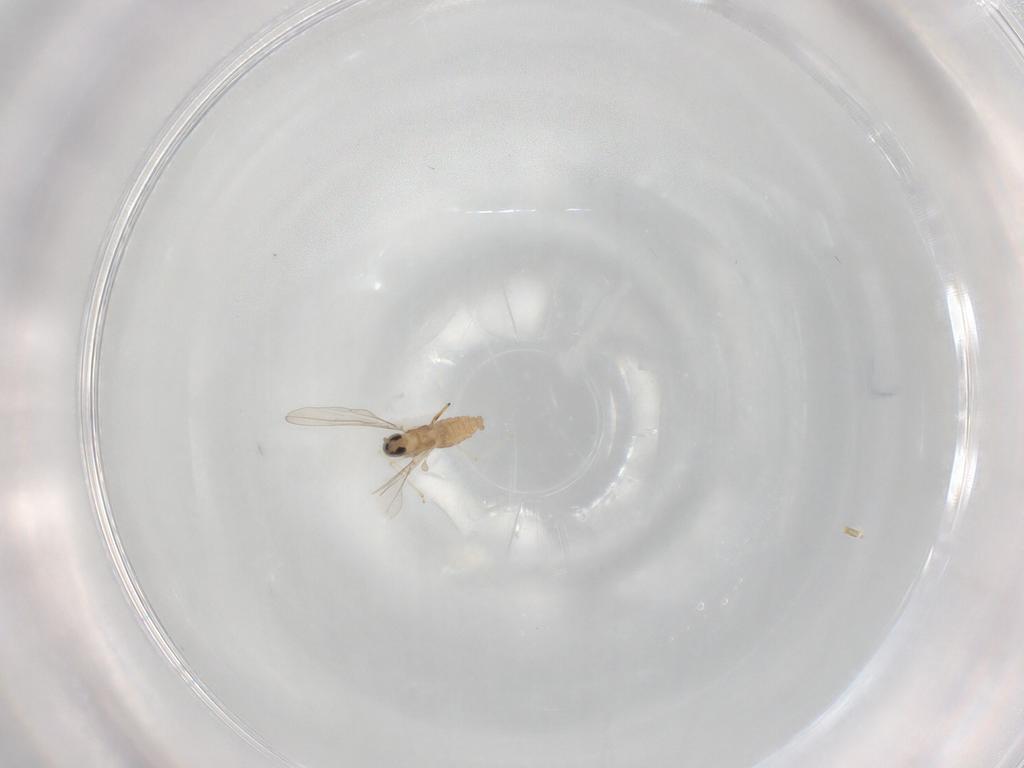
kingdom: Animalia
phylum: Arthropoda
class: Insecta
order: Diptera
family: Cecidomyiidae
